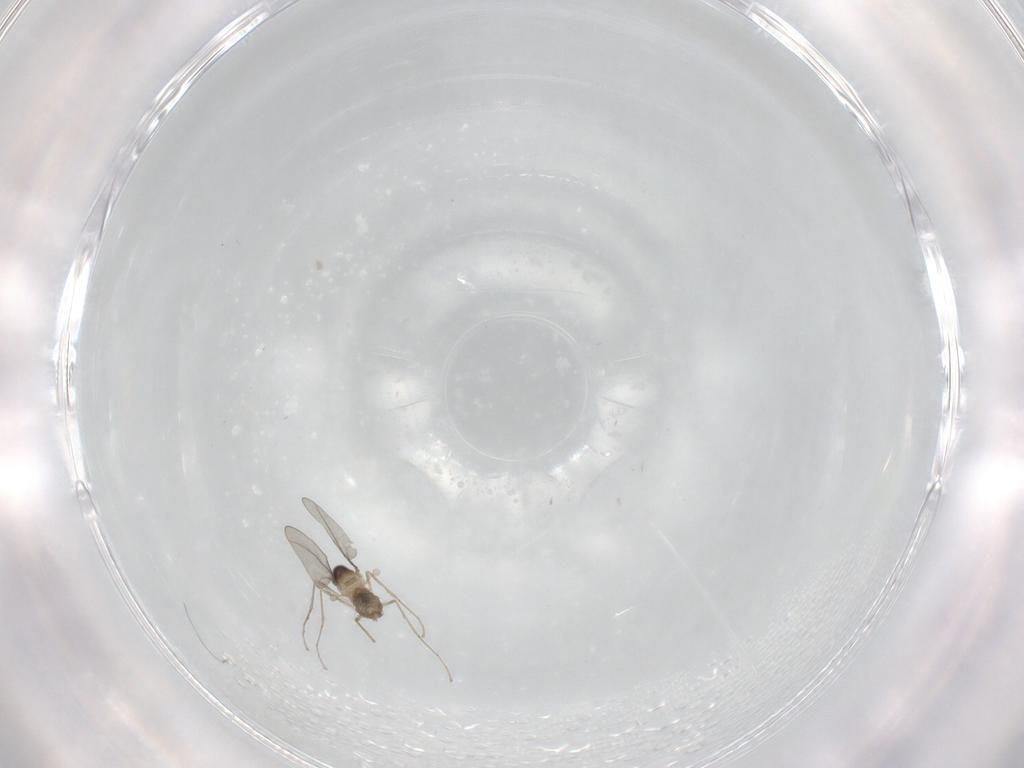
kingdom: Animalia
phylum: Arthropoda
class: Insecta
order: Diptera
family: Cecidomyiidae
